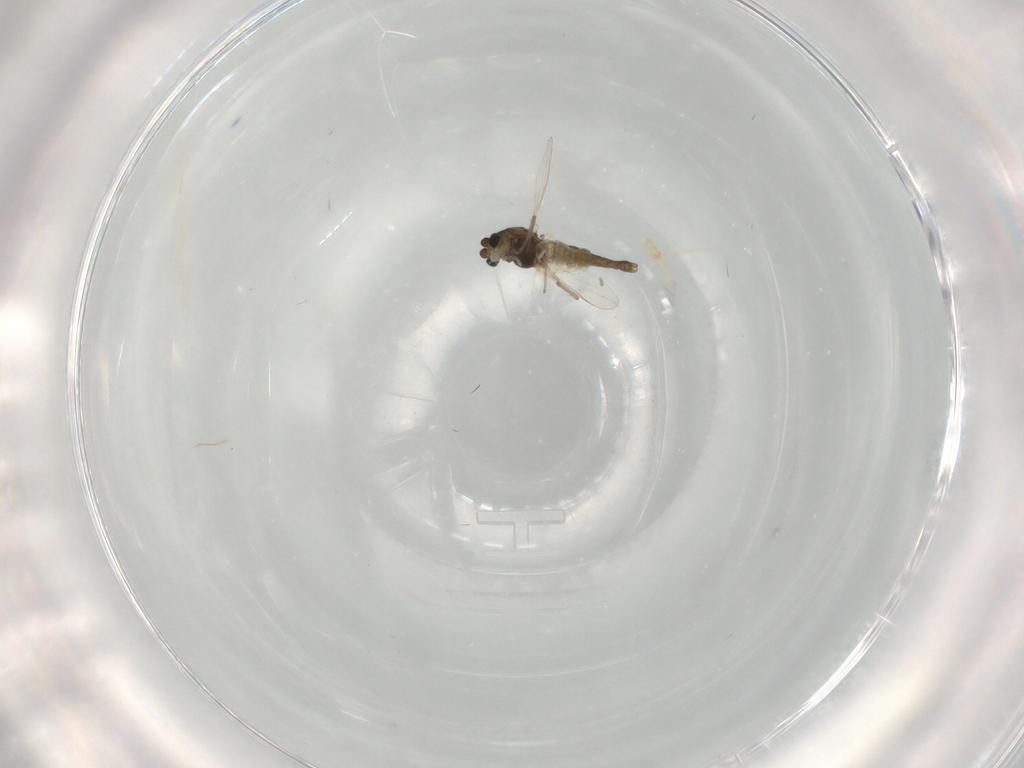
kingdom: Animalia
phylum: Arthropoda
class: Insecta
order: Diptera
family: Chironomidae
